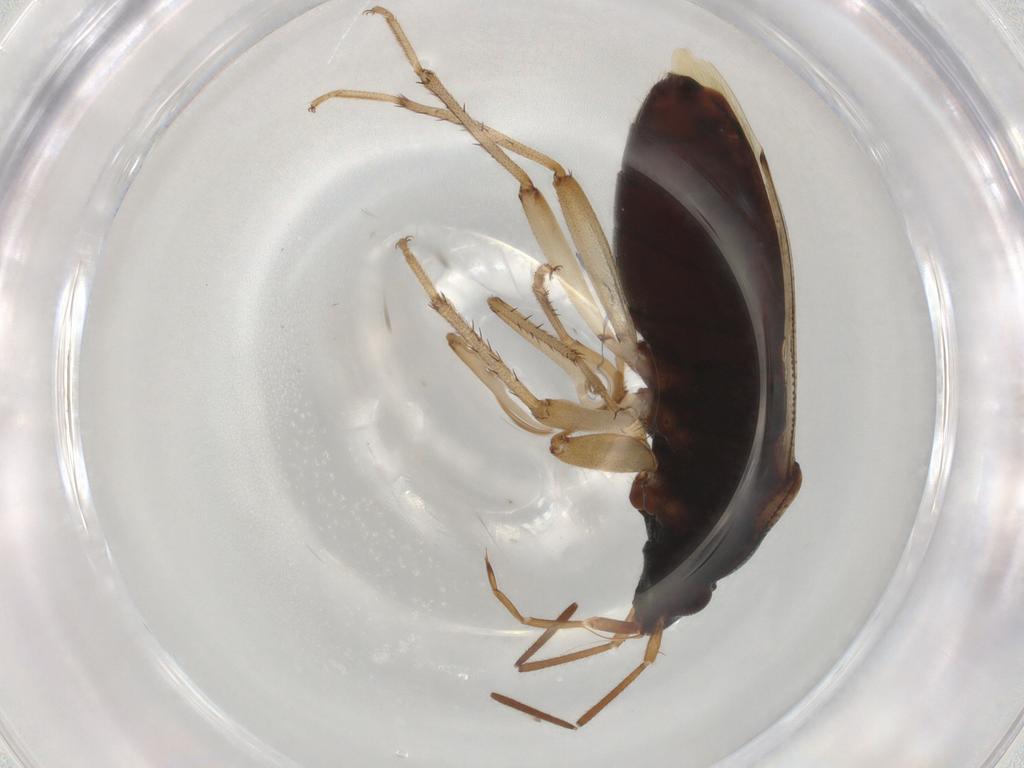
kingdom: Animalia
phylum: Arthropoda
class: Insecta
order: Hemiptera
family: Rhyparochromidae
